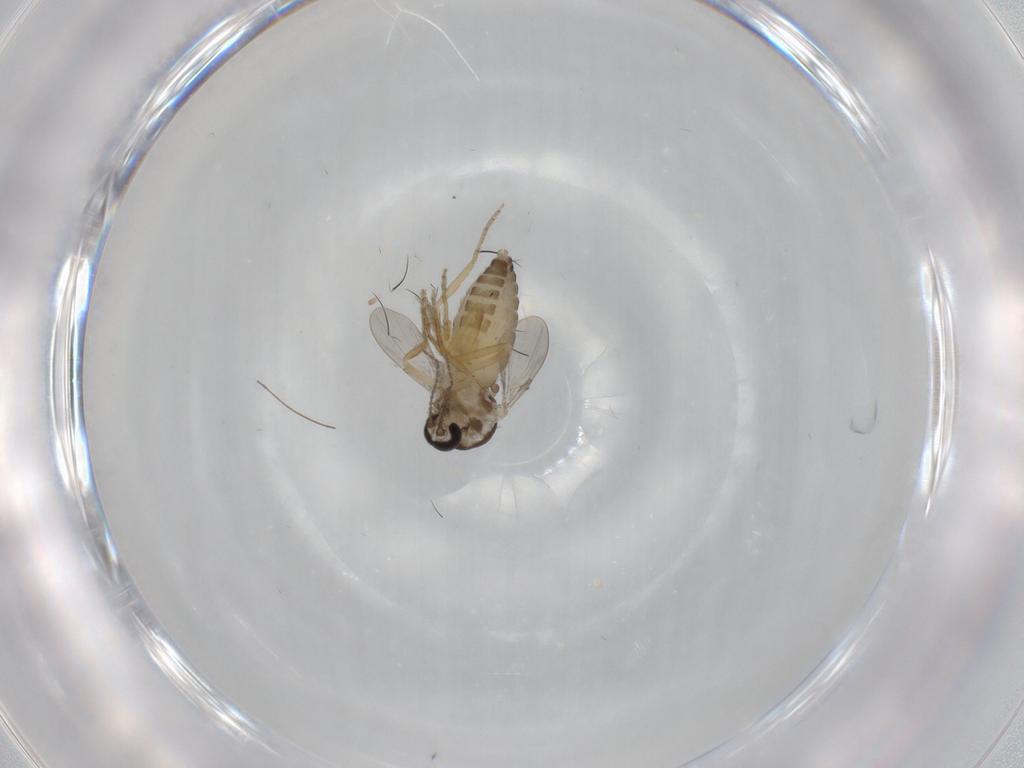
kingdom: Animalia
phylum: Arthropoda
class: Insecta
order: Diptera
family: Ceratopogonidae
